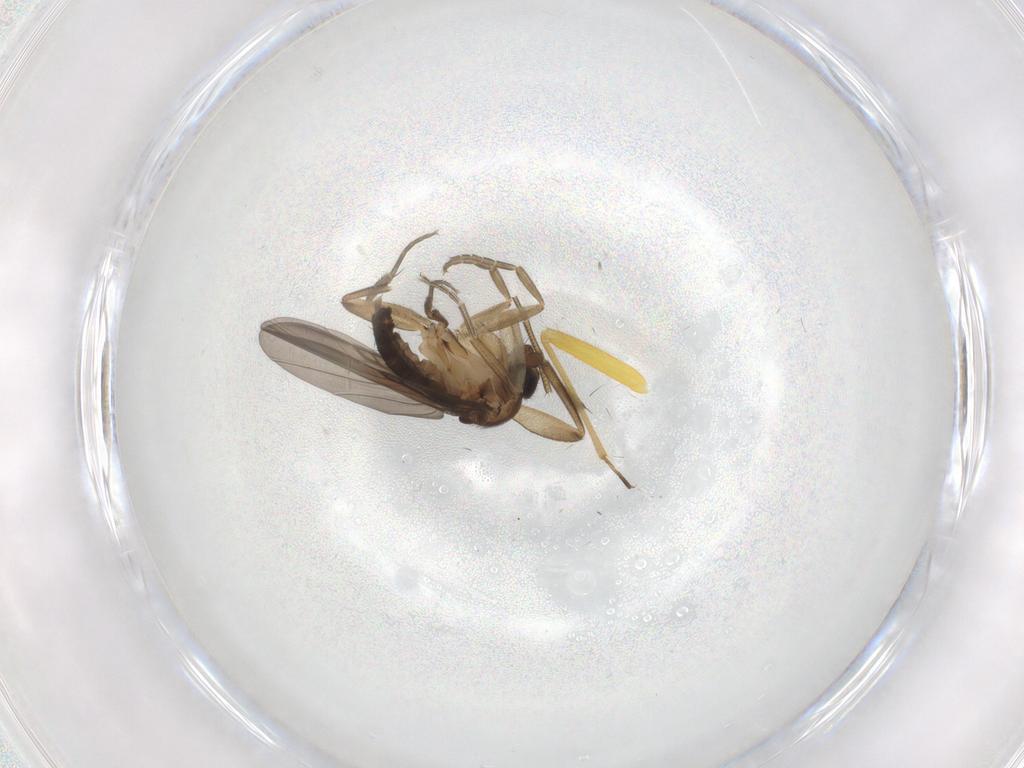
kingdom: Animalia
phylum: Arthropoda
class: Insecta
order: Diptera
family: Phoridae
